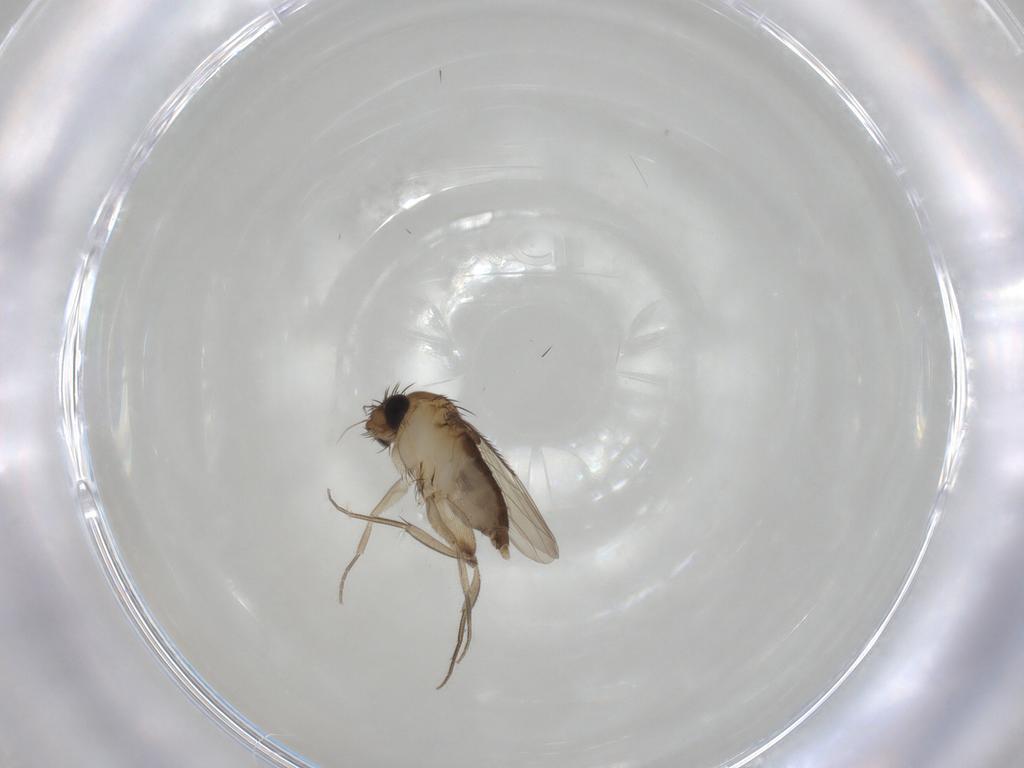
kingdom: Animalia
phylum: Arthropoda
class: Insecta
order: Diptera
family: Phoridae
